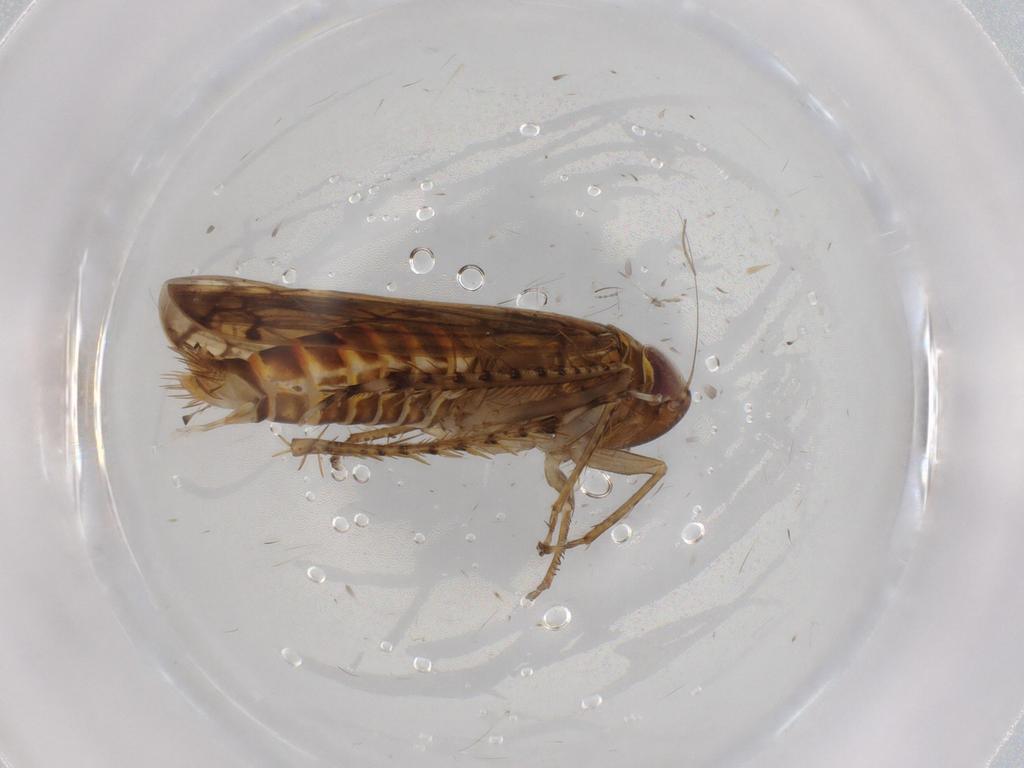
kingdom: Animalia
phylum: Arthropoda
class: Insecta
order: Hemiptera
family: Cicadellidae
